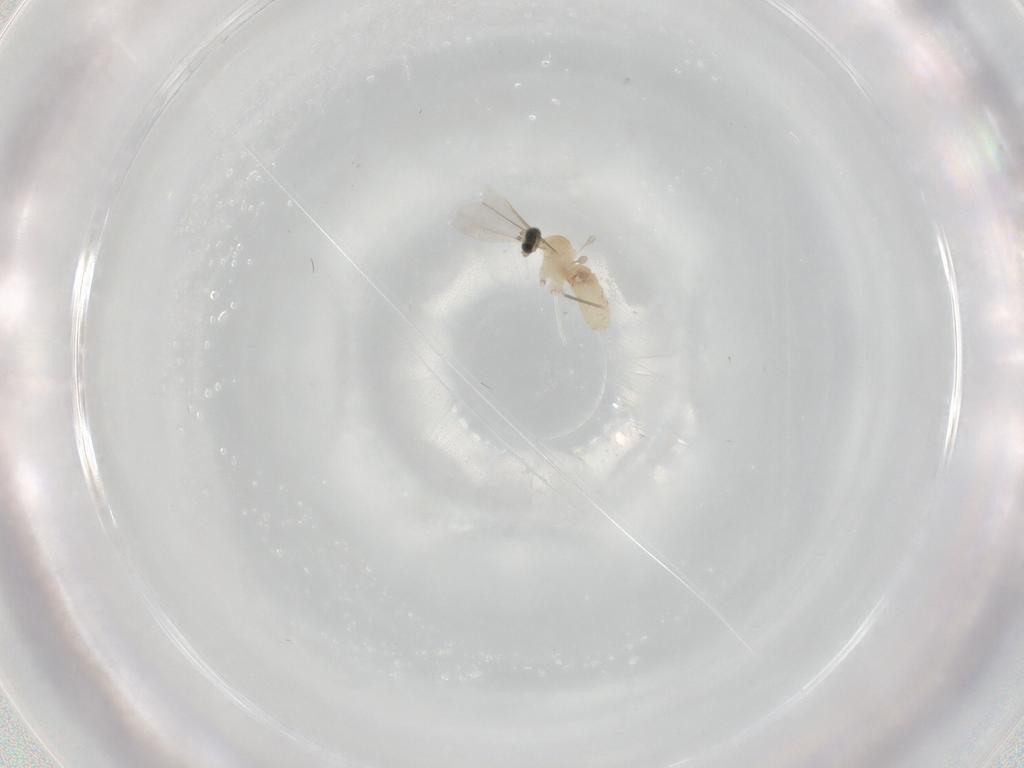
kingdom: Animalia
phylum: Arthropoda
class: Insecta
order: Diptera
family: Cecidomyiidae
